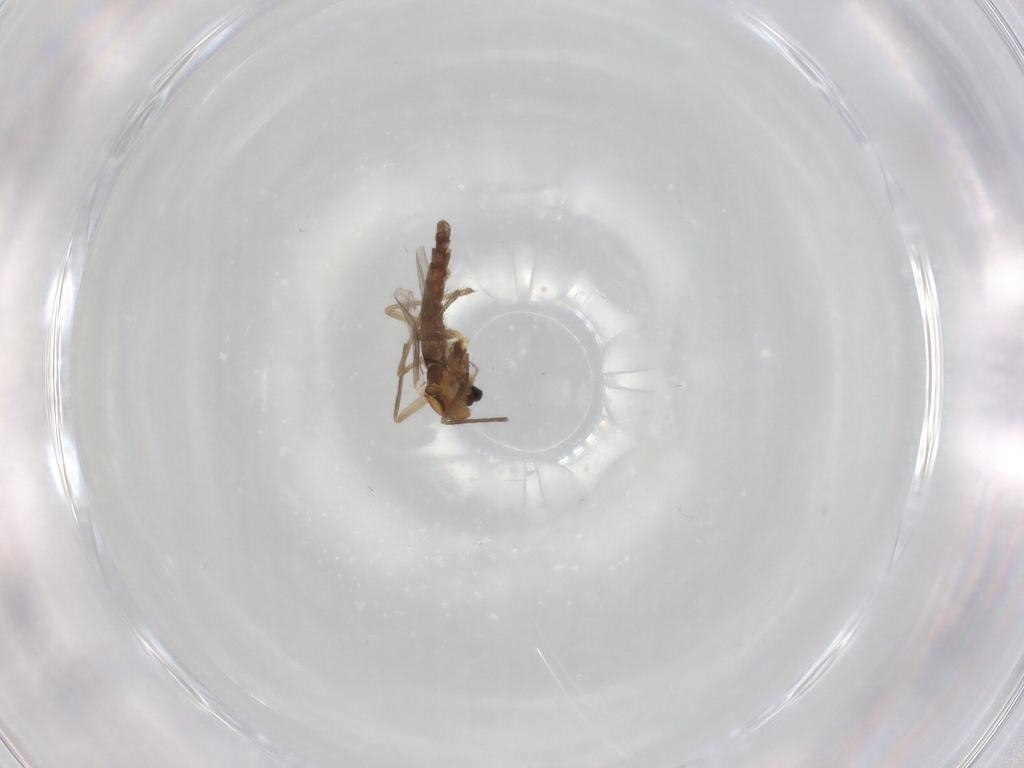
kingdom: Animalia
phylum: Arthropoda
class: Insecta
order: Diptera
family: Chironomidae
